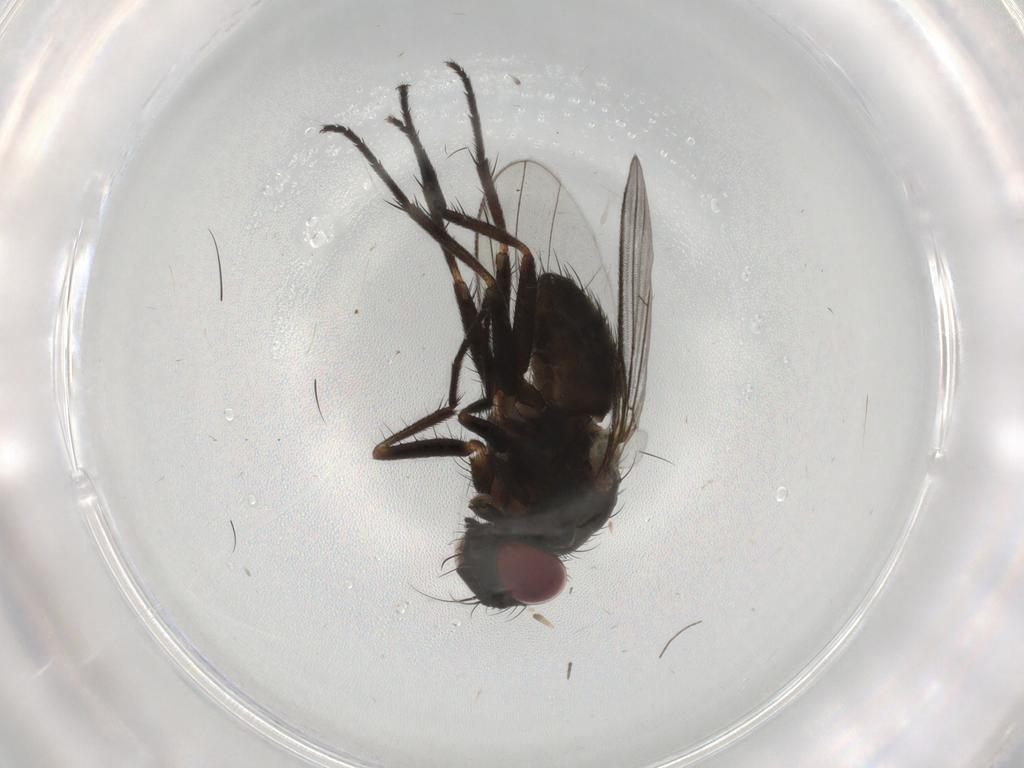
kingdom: Animalia
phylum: Arthropoda
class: Insecta
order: Diptera
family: Muscidae
